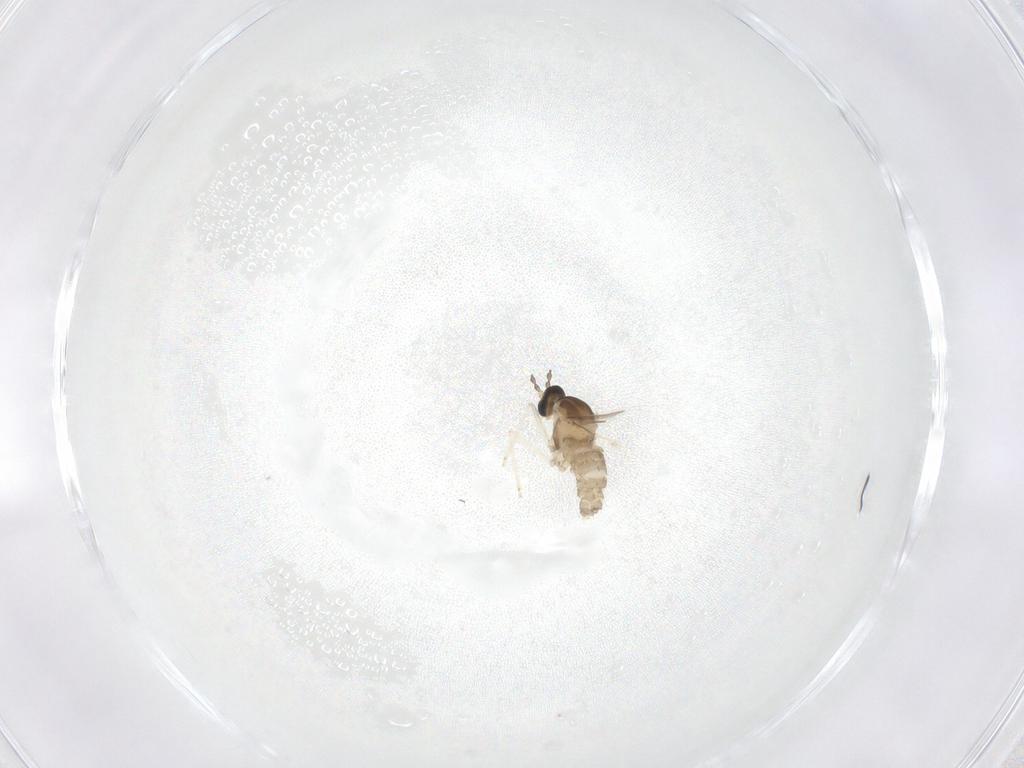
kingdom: Animalia
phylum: Arthropoda
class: Insecta
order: Diptera
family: Cecidomyiidae
